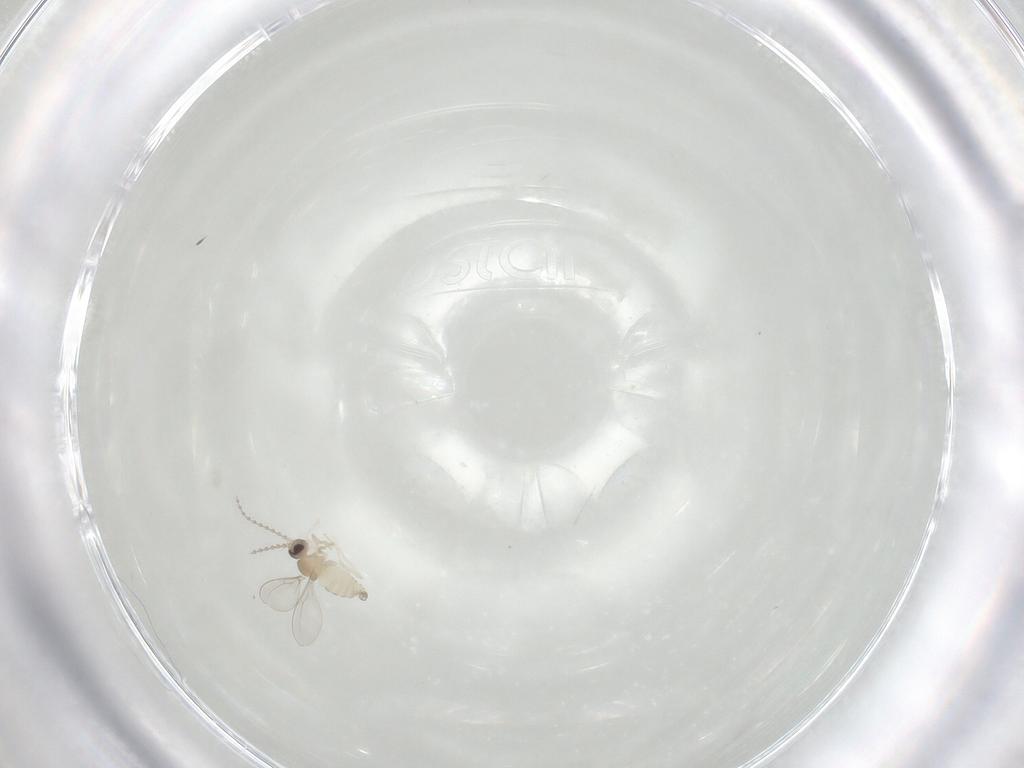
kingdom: Animalia
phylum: Arthropoda
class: Insecta
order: Diptera
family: Cecidomyiidae
